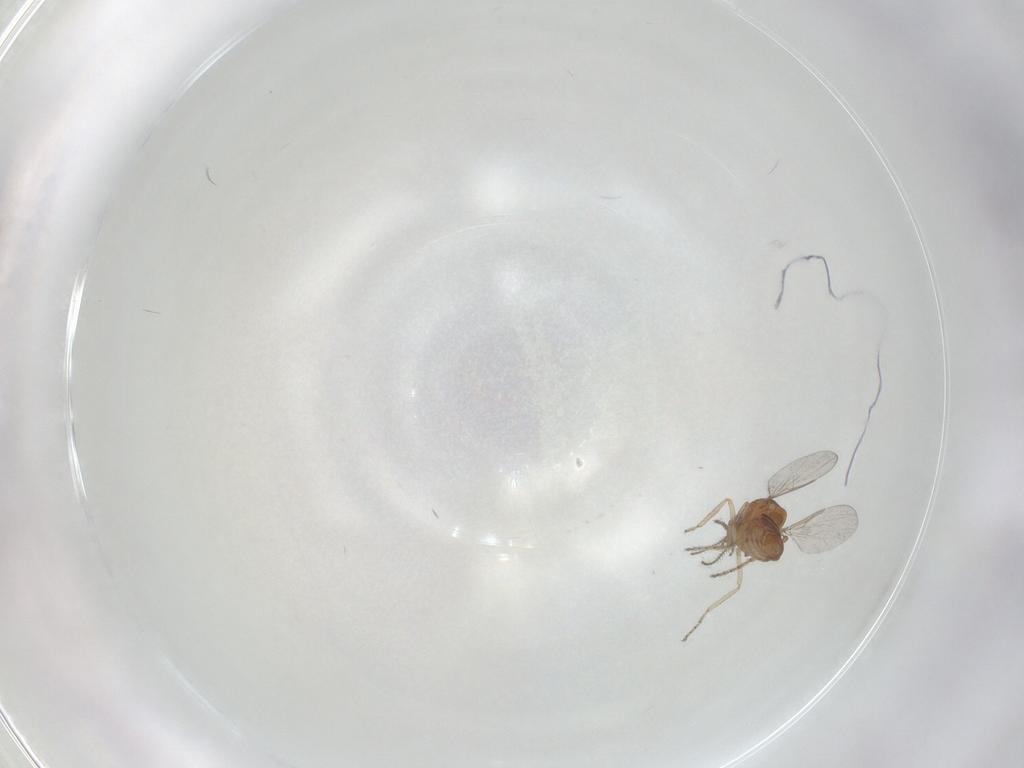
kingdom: Animalia
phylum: Arthropoda
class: Insecta
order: Diptera
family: Ceratopogonidae
